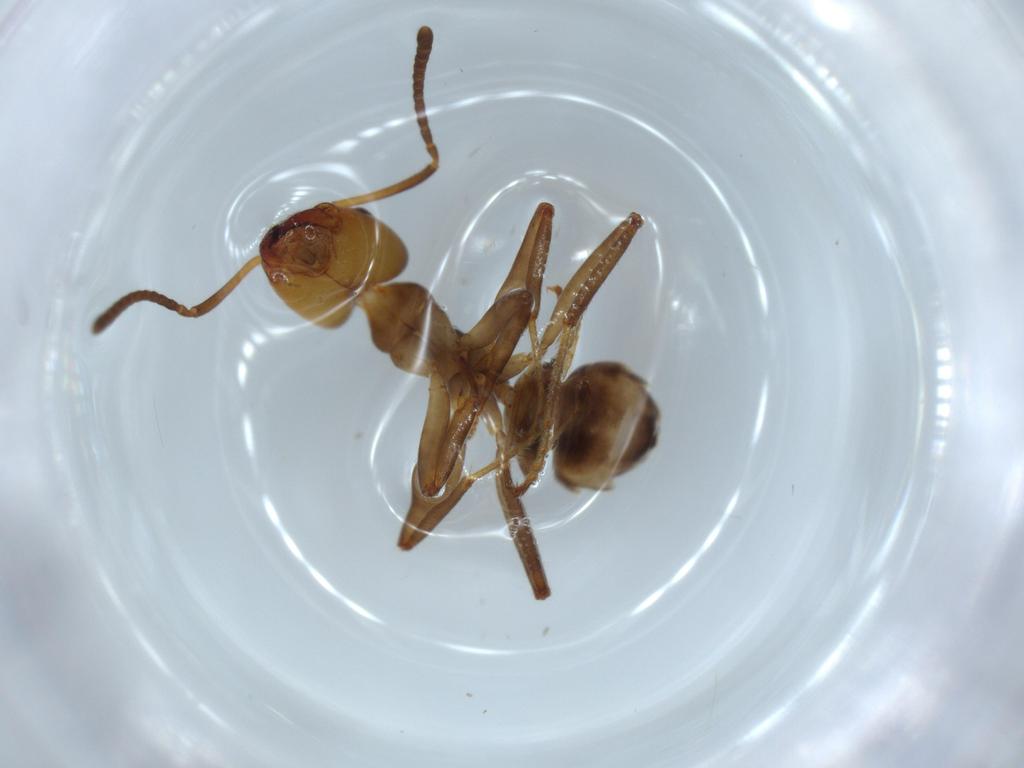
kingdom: Animalia
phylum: Arthropoda
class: Insecta
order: Hymenoptera
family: Formicidae
